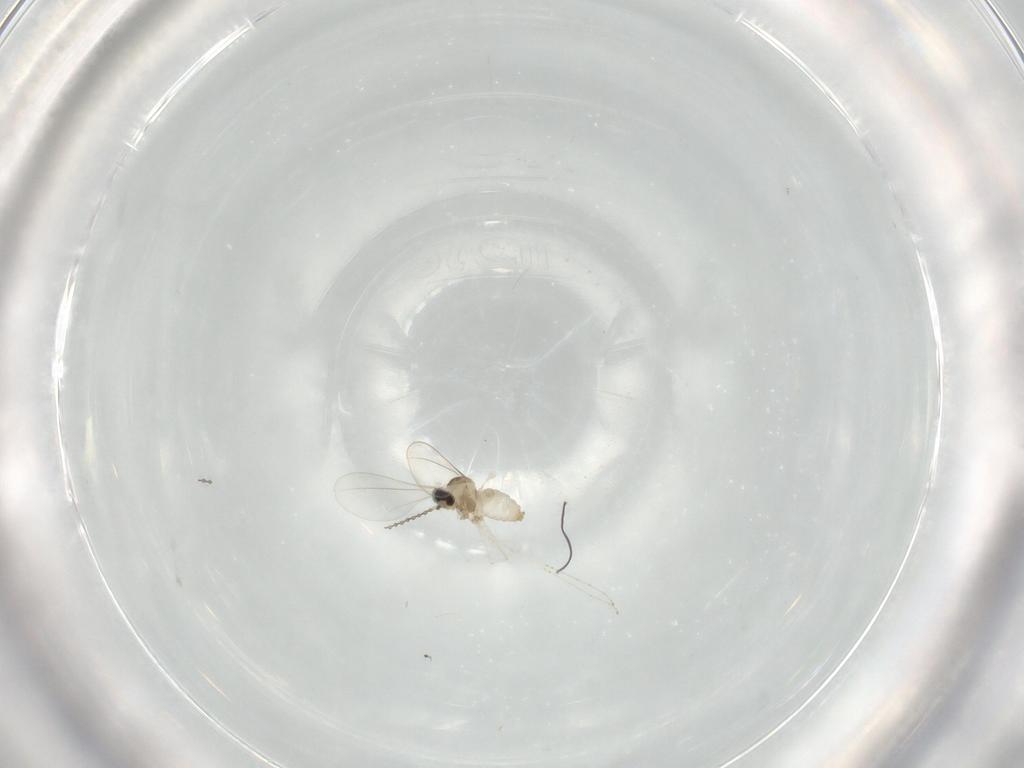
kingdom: Animalia
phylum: Arthropoda
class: Insecta
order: Diptera
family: Cecidomyiidae
